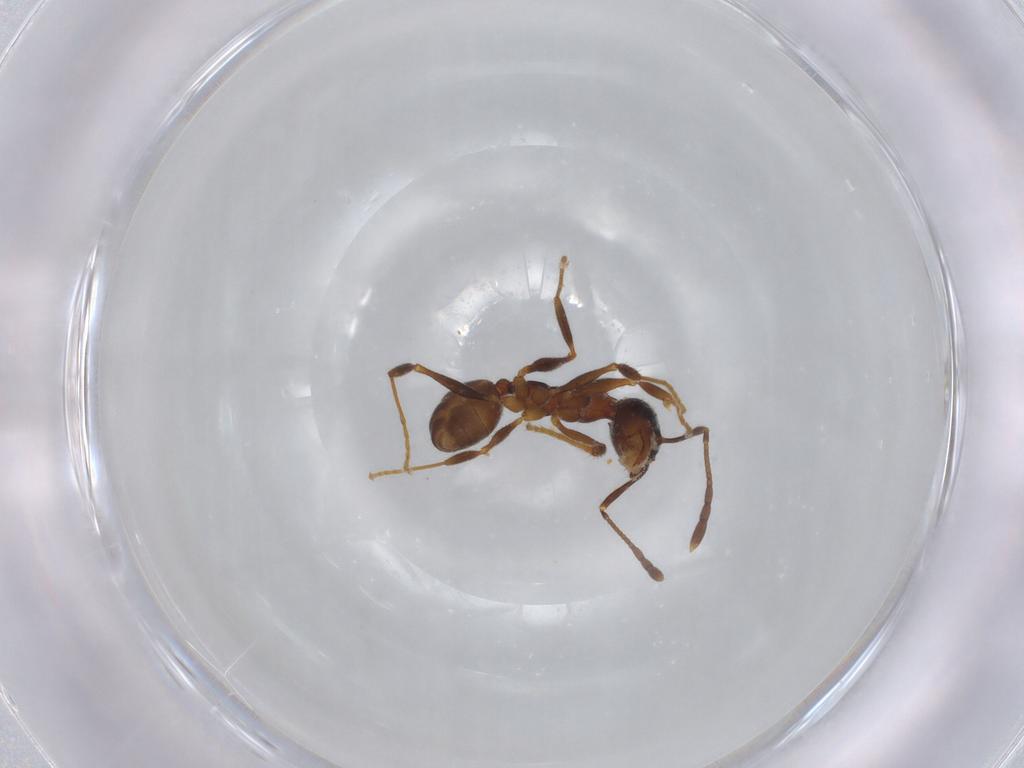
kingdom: Animalia
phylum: Arthropoda
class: Insecta
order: Hymenoptera
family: Formicidae
